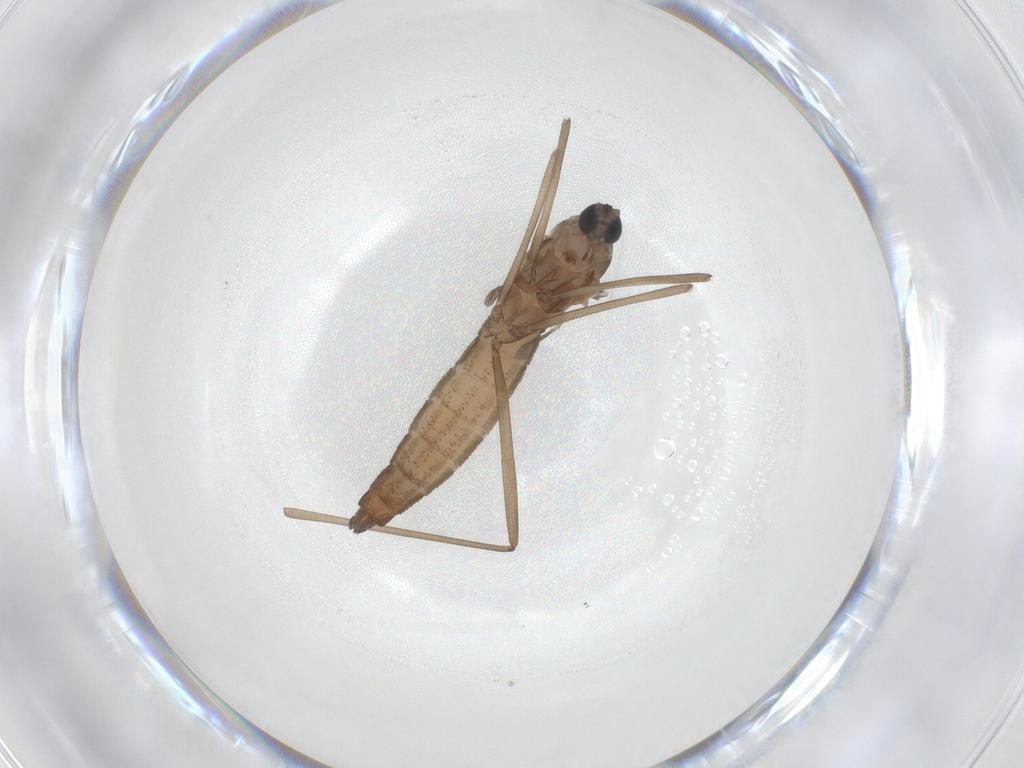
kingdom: Animalia
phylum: Arthropoda
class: Insecta
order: Diptera
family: Cecidomyiidae
